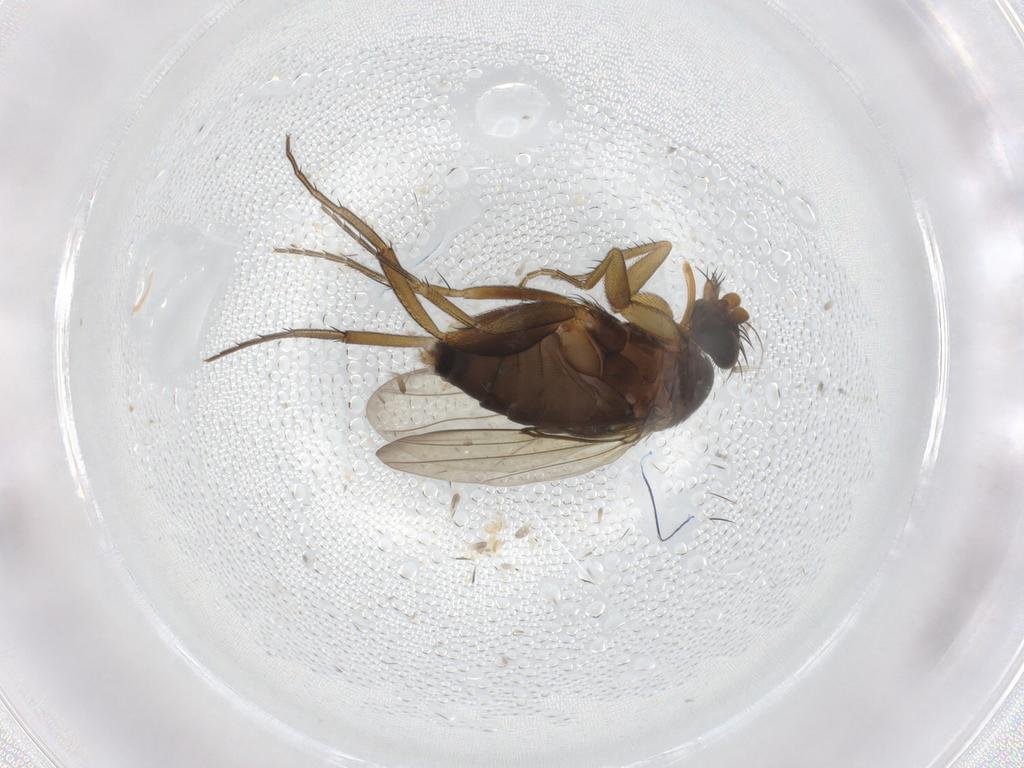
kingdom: Animalia
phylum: Arthropoda
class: Insecta
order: Diptera
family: Phoridae
